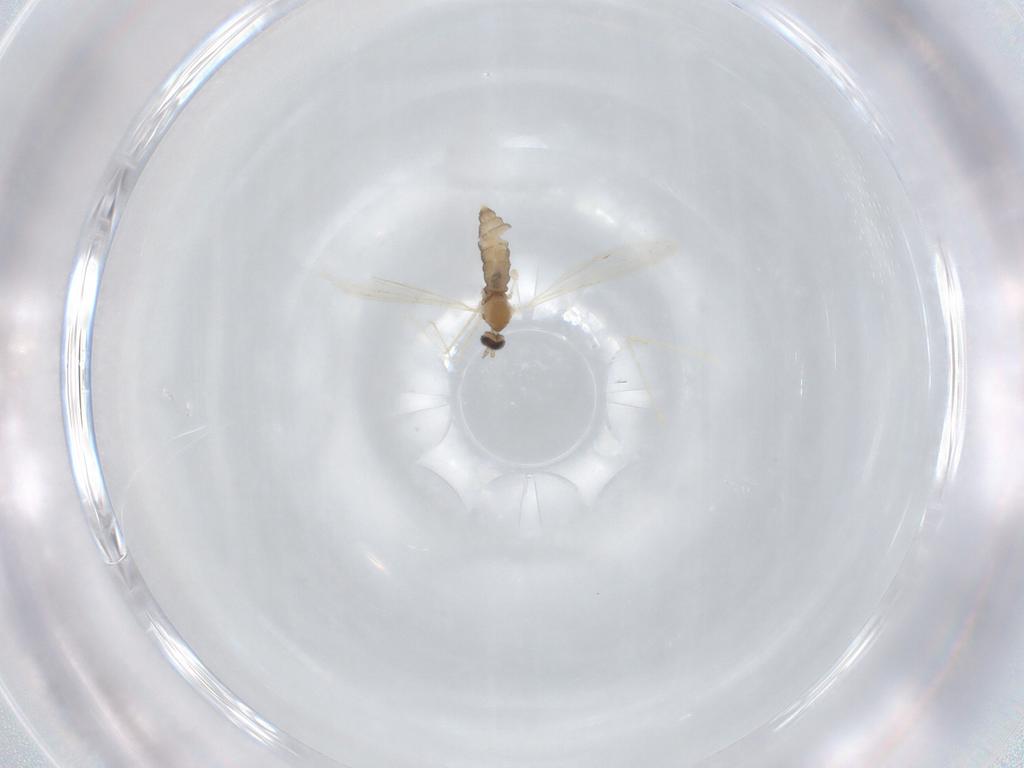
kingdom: Animalia
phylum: Arthropoda
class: Insecta
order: Diptera
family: Cecidomyiidae
